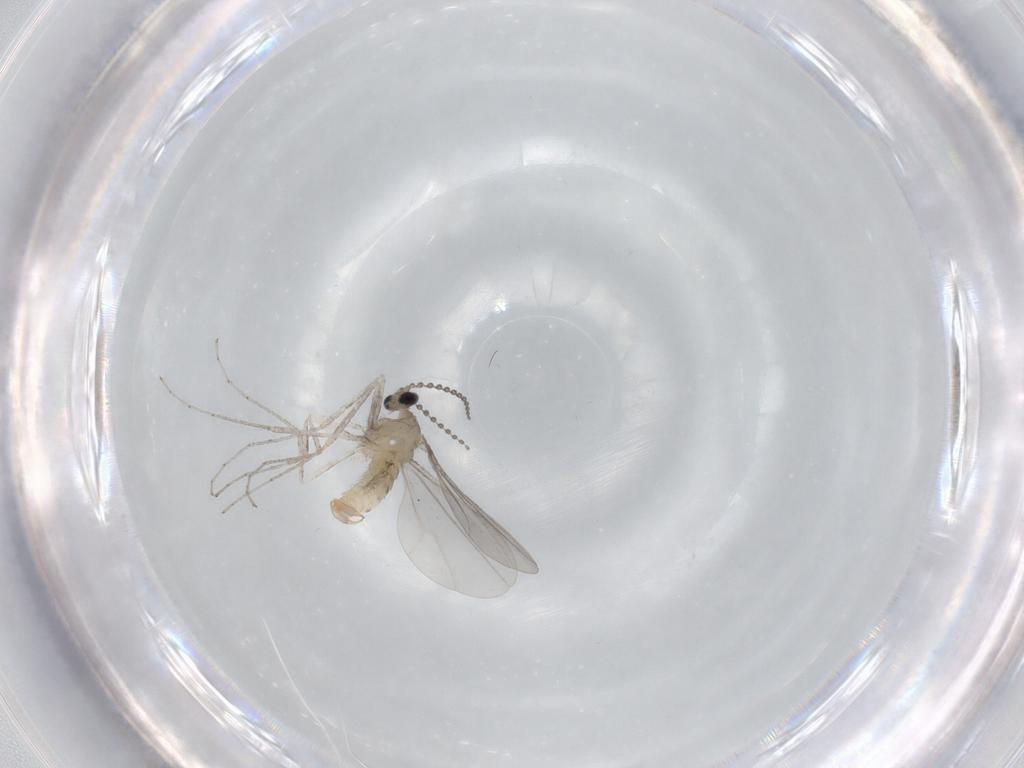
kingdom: Animalia
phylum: Arthropoda
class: Insecta
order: Diptera
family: Cecidomyiidae
